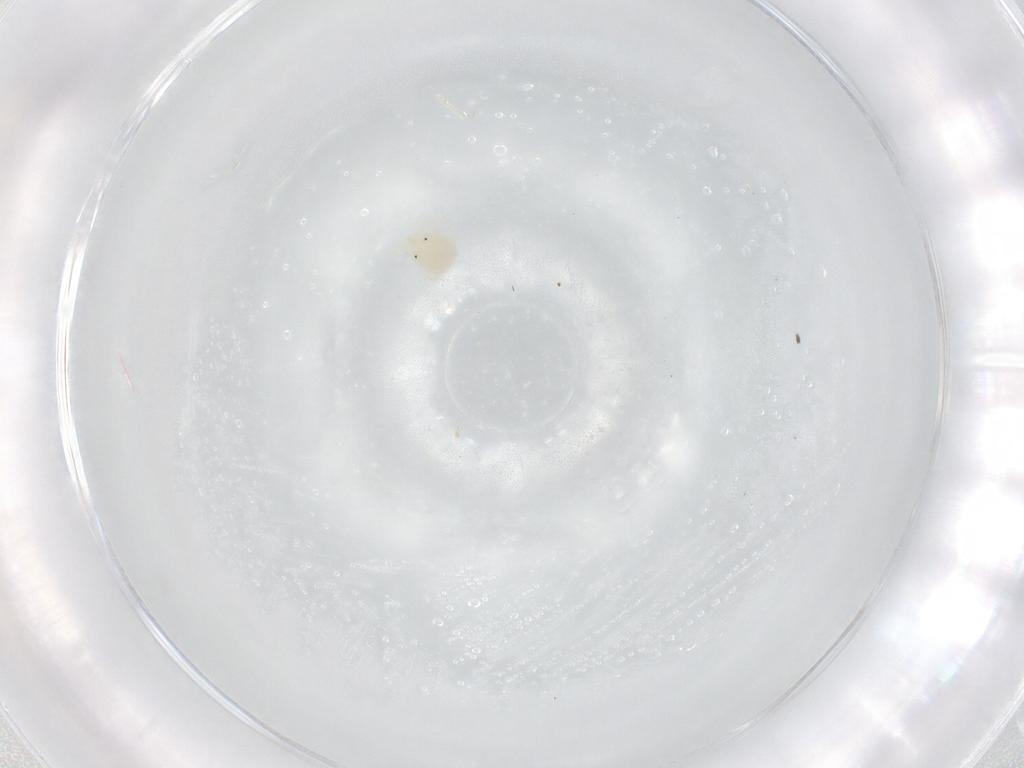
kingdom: Animalia
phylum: Arthropoda
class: Arachnida
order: Trombidiformes
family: Sperchontidae
